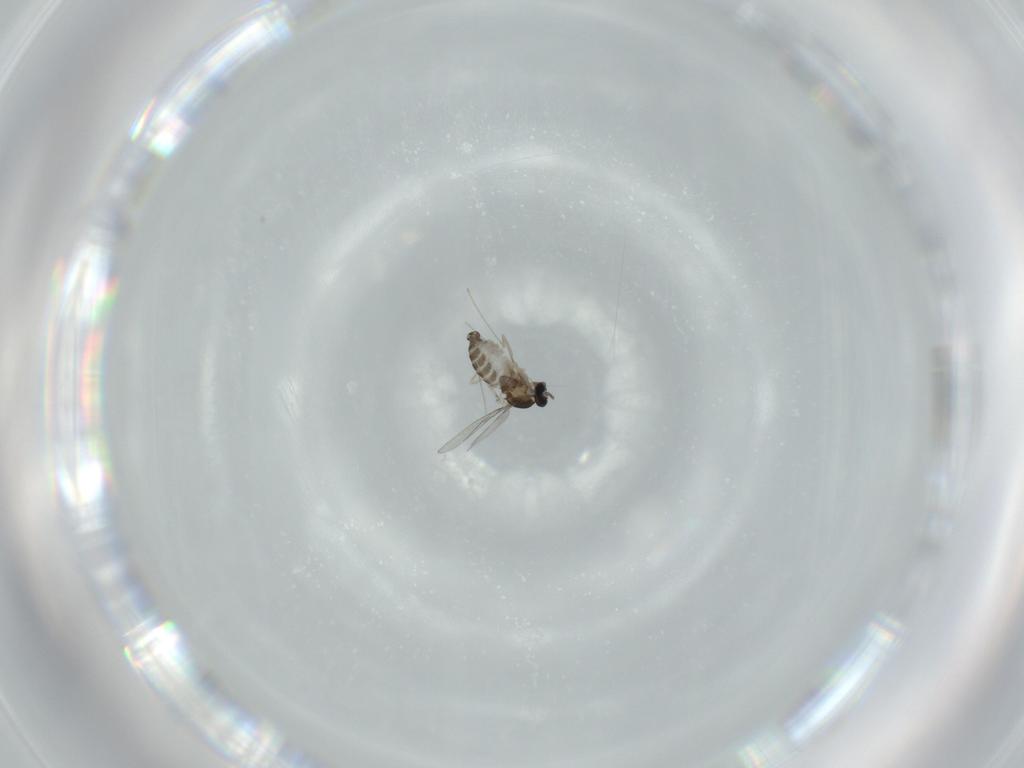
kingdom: Animalia
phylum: Arthropoda
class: Insecta
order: Diptera
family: Cecidomyiidae
